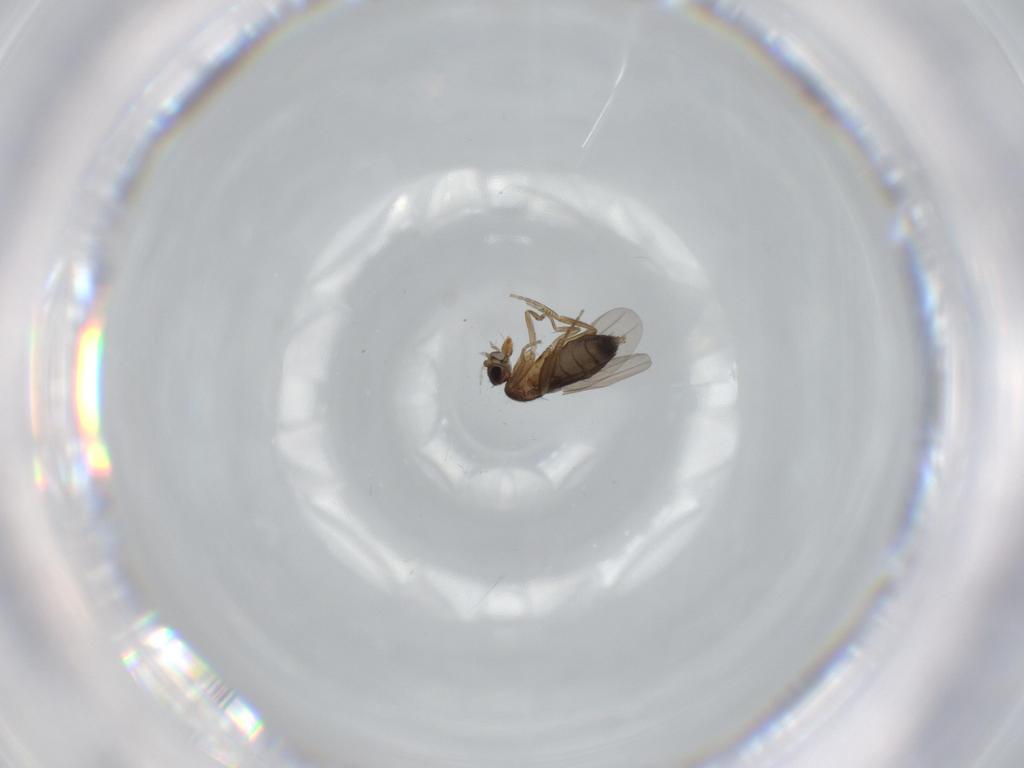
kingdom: Animalia
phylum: Arthropoda
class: Insecta
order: Diptera
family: Phoridae
